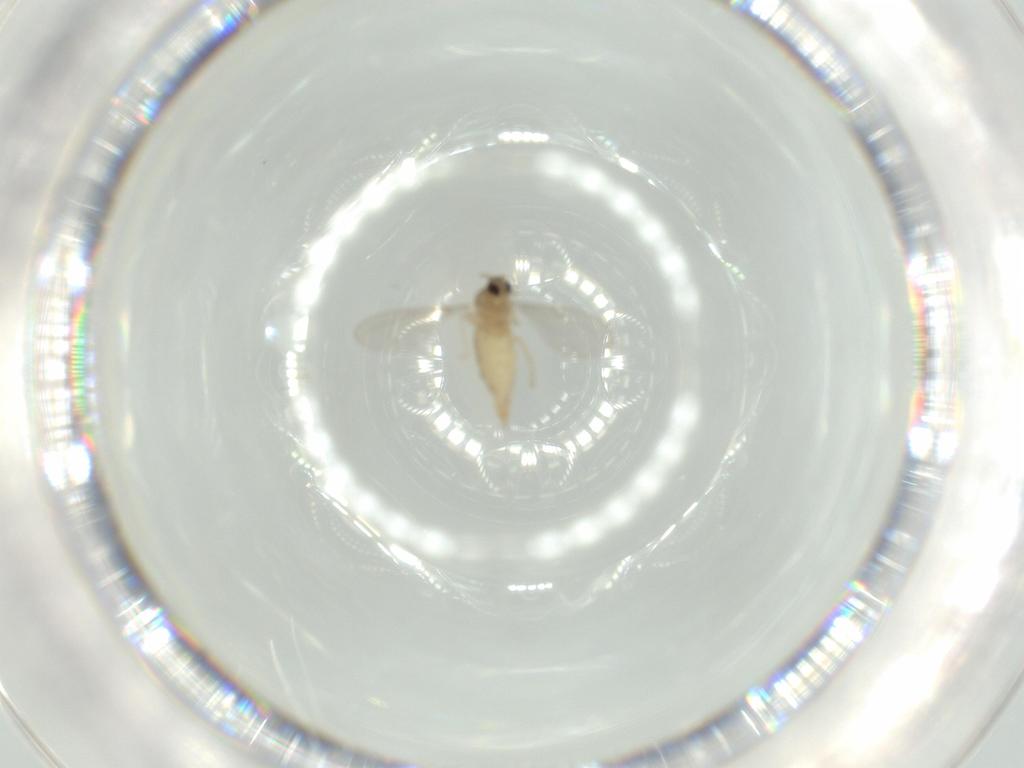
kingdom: Animalia
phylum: Arthropoda
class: Insecta
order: Diptera
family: Cecidomyiidae
